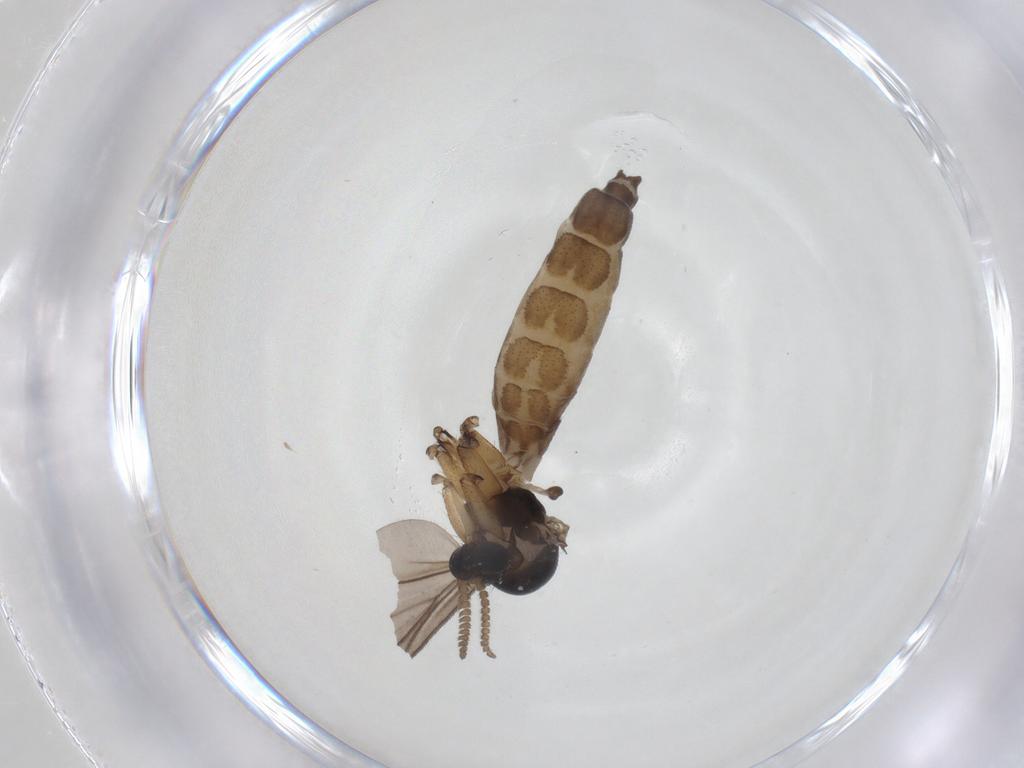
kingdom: Animalia
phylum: Arthropoda
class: Insecta
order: Diptera
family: Mycetophilidae
